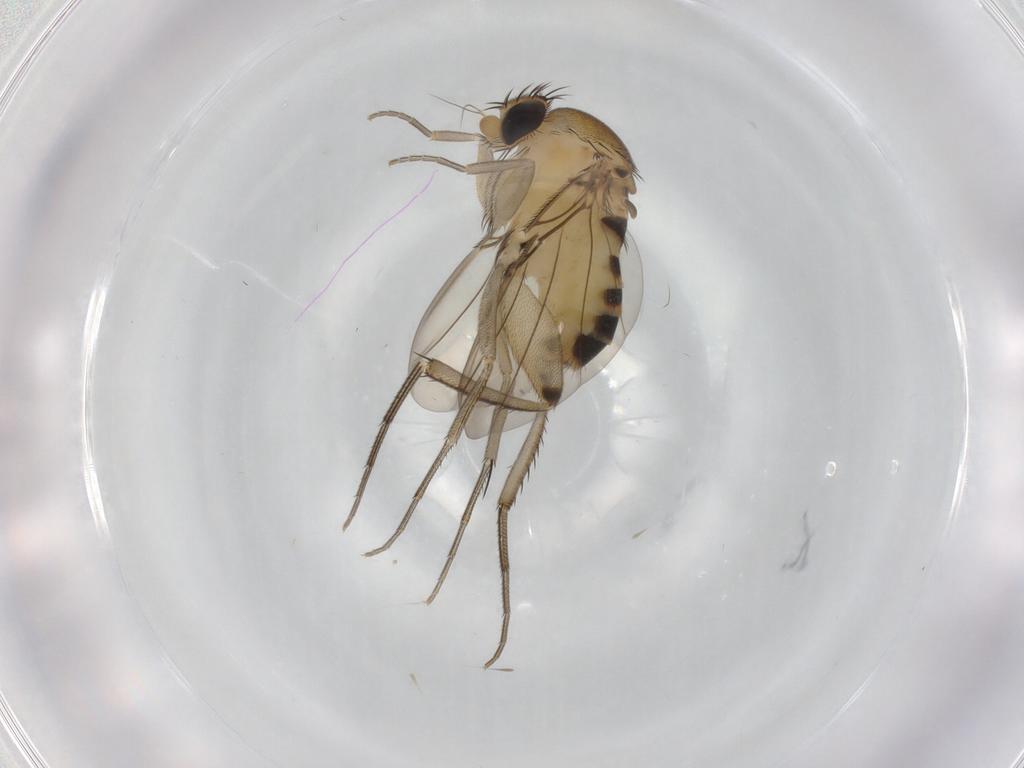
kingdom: Animalia
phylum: Arthropoda
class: Insecta
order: Diptera
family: Phoridae
